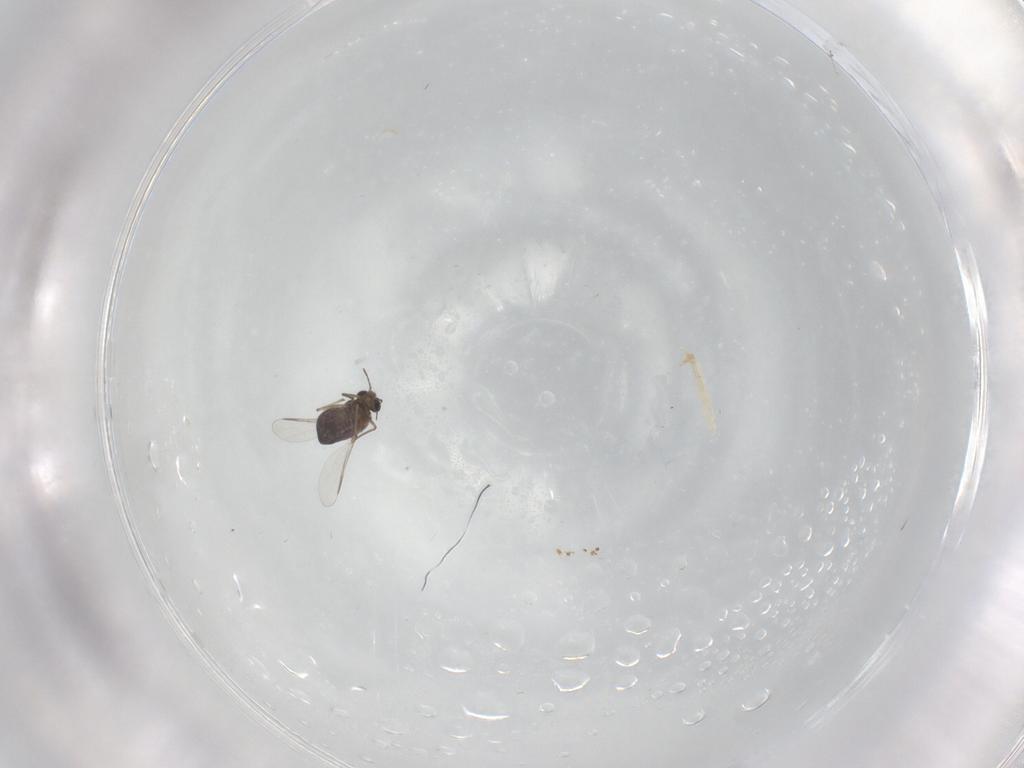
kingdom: Animalia
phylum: Arthropoda
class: Insecta
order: Diptera
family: Chironomidae
